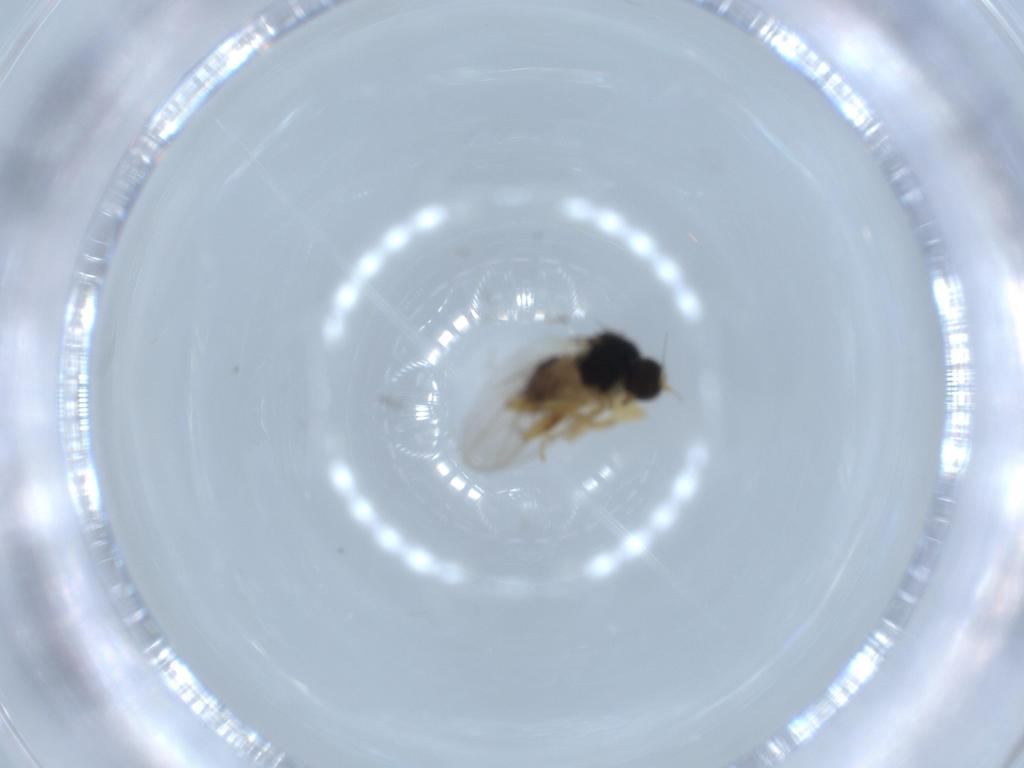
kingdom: Animalia
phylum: Arthropoda
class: Insecta
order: Diptera
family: Hybotidae
